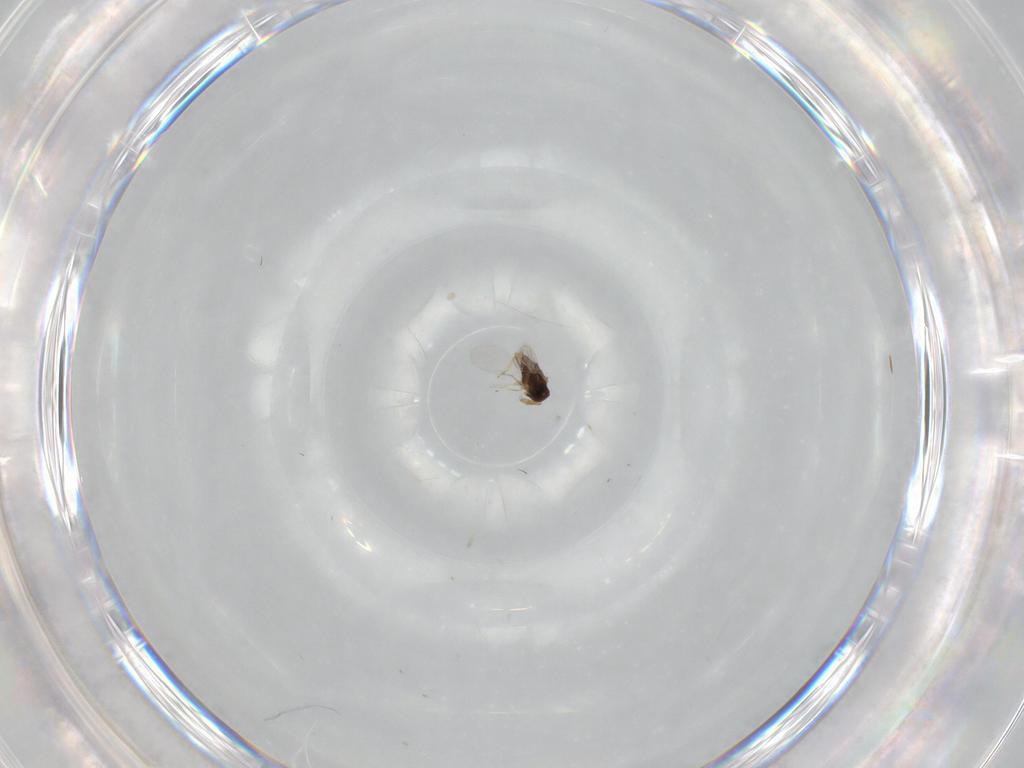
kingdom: Animalia
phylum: Arthropoda
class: Insecta
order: Hymenoptera
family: Encyrtidae
